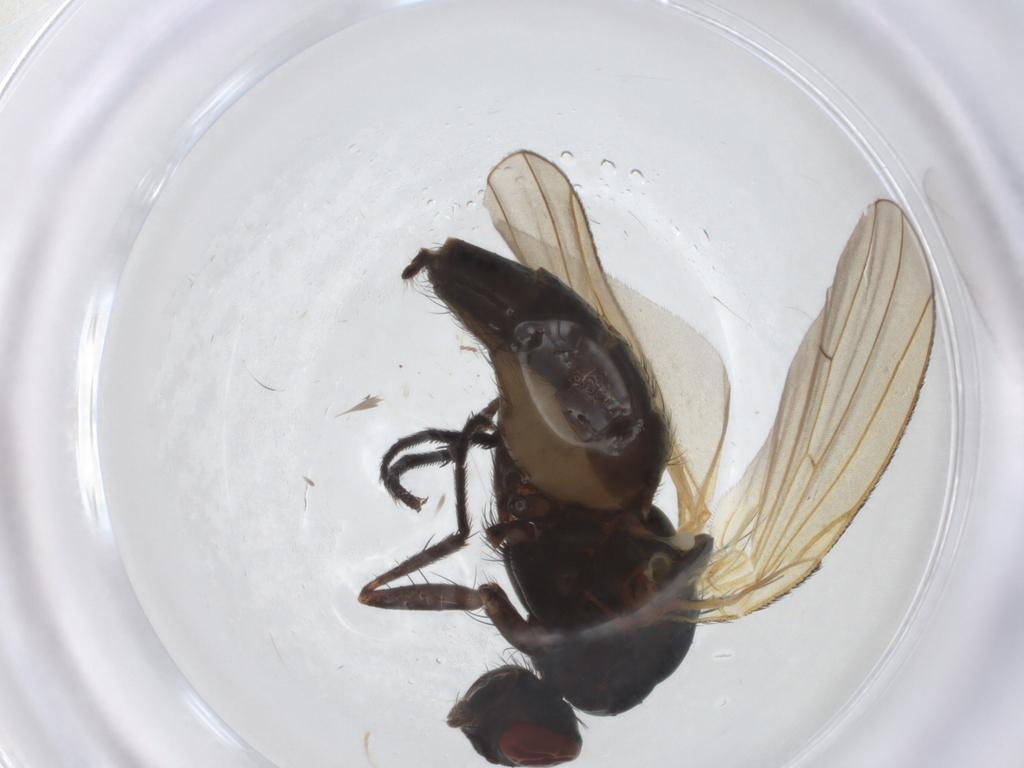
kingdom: Animalia
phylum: Arthropoda
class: Insecta
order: Diptera
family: Anthomyiidae
